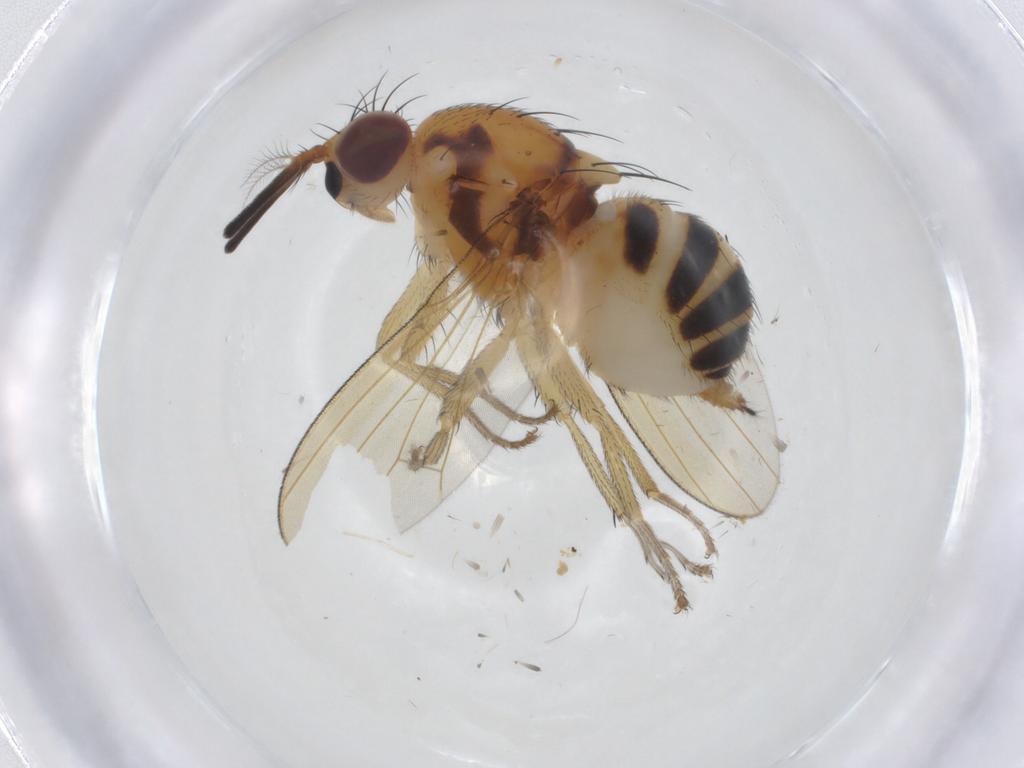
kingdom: Animalia
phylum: Arthropoda
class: Insecta
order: Diptera
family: Lauxaniidae
